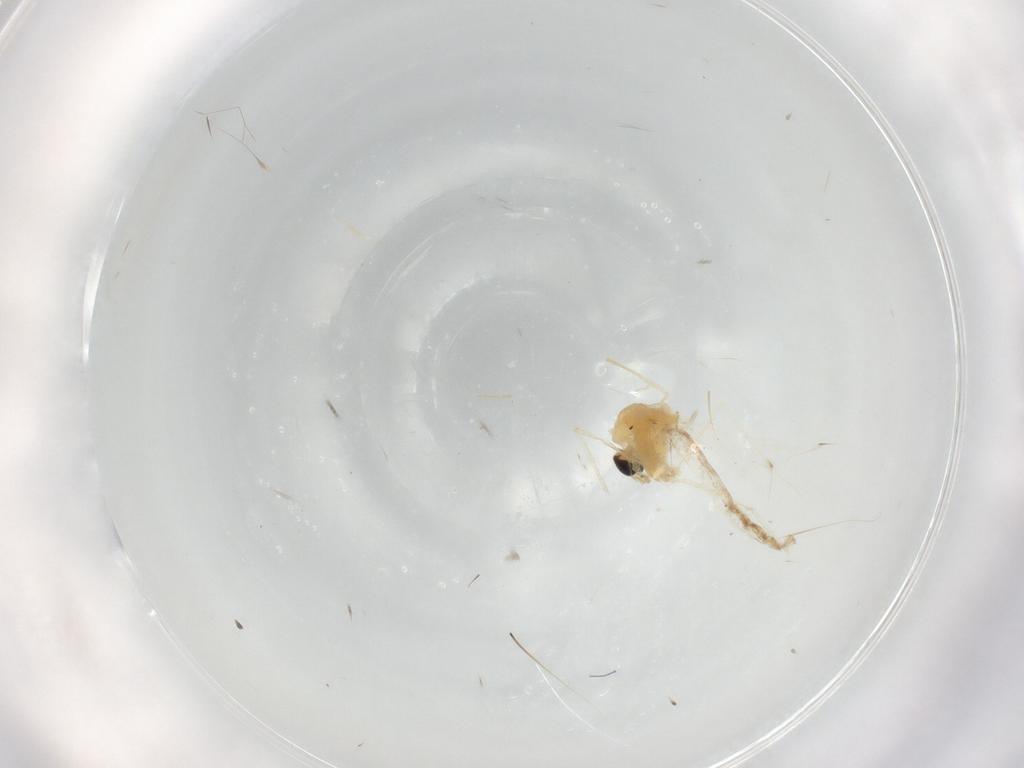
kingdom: Animalia
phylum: Arthropoda
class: Insecta
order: Diptera
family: Chironomidae
